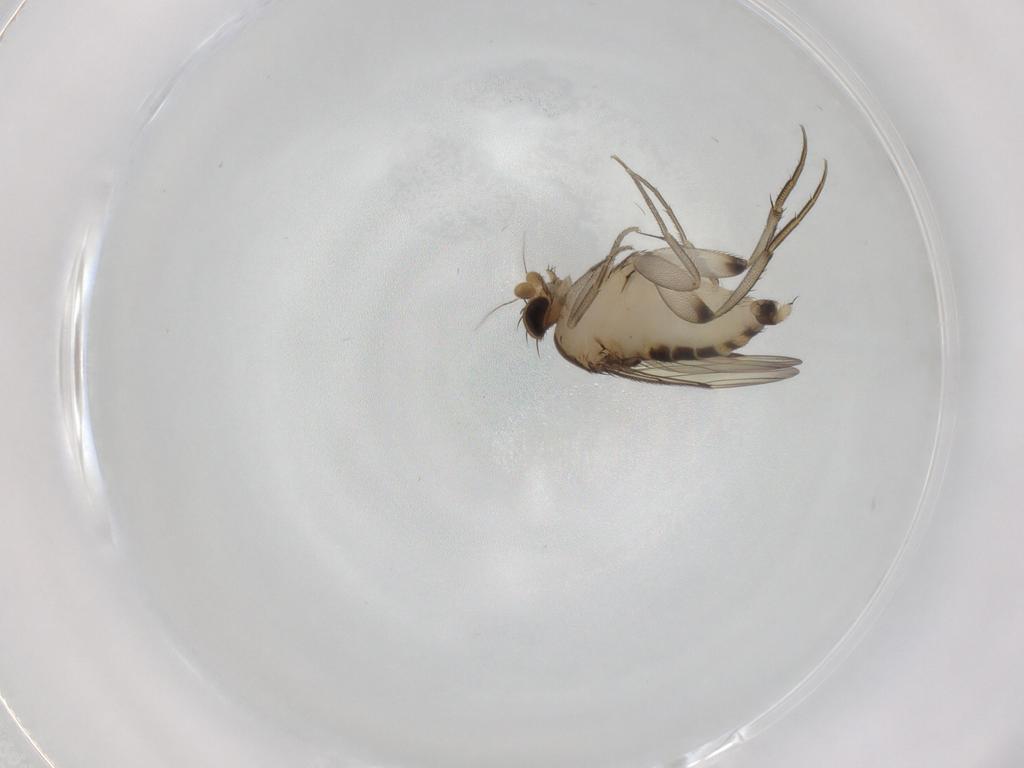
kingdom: Animalia
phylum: Arthropoda
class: Insecta
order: Diptera
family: Phoridae
